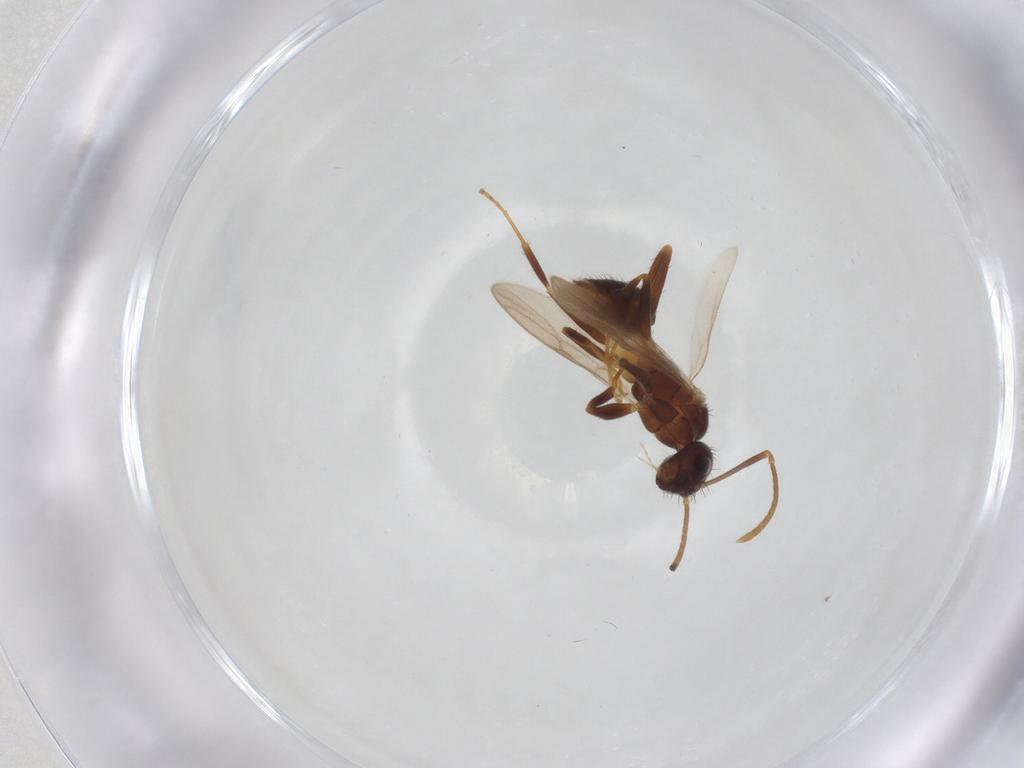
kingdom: Animalia
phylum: Arthropoda
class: Insecta
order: Hymenoptera
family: Formicidae
